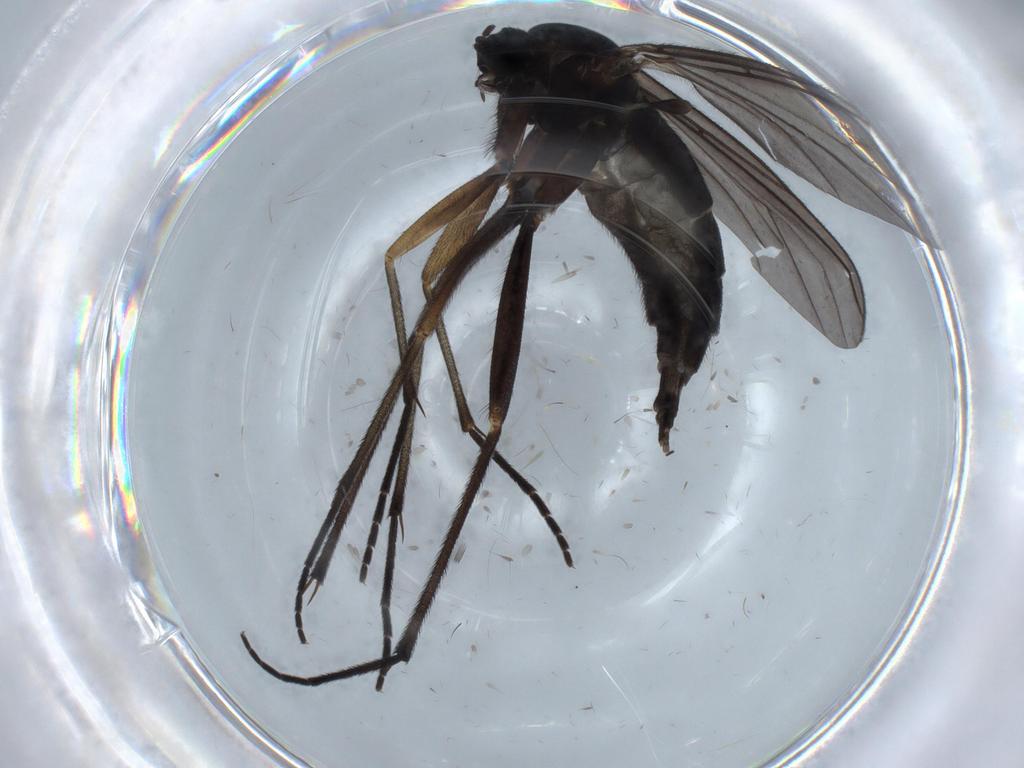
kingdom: Animalia
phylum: Arthropoda
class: Insecta
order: Diptera
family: Sciaridae
